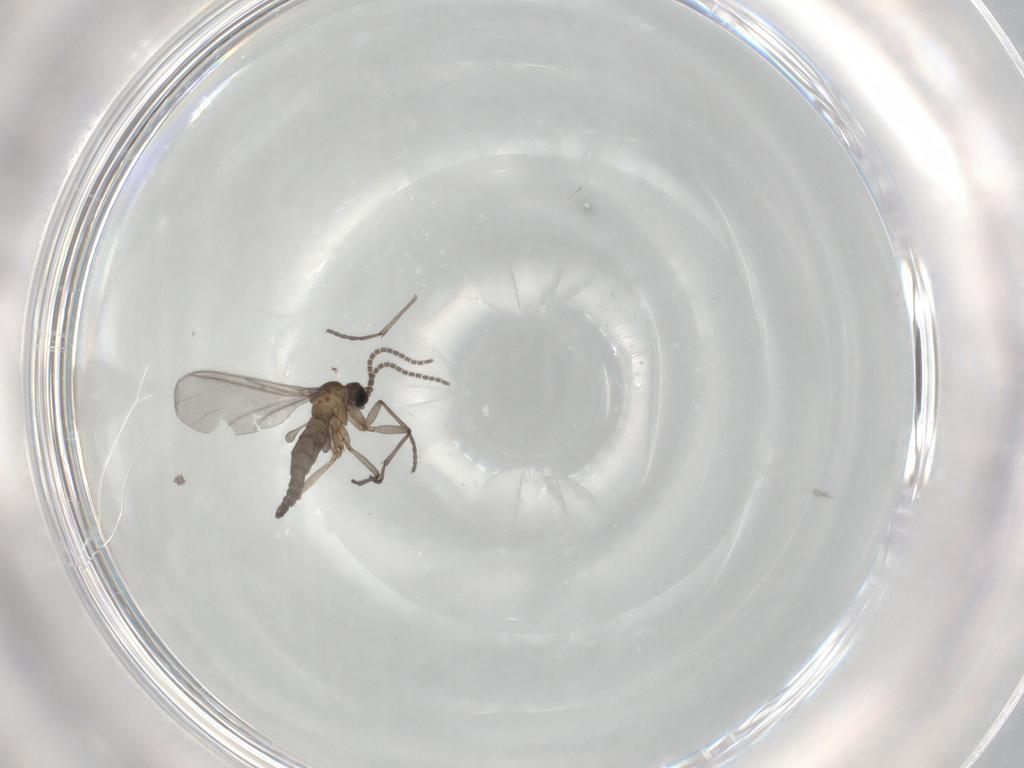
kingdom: Animalia
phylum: Arthropoda
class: Insecta
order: Diptera
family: Sciaridae
